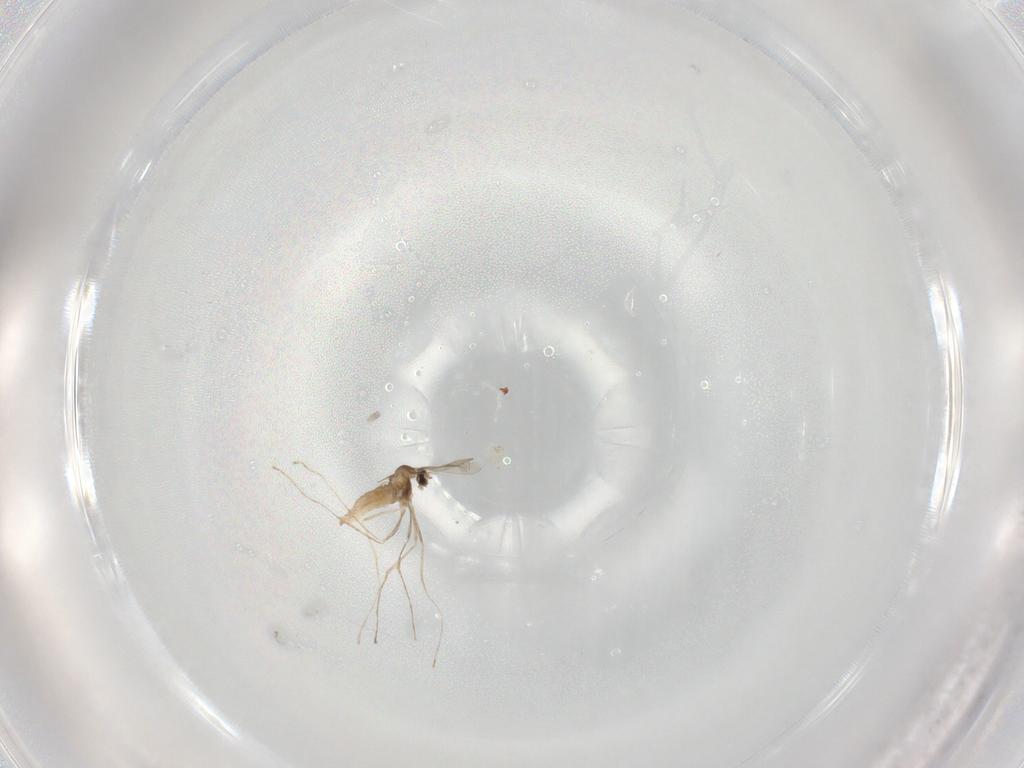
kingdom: Animalia
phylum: Arthropoda
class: Insecta
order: Diptera
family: Cecidomyiidae
